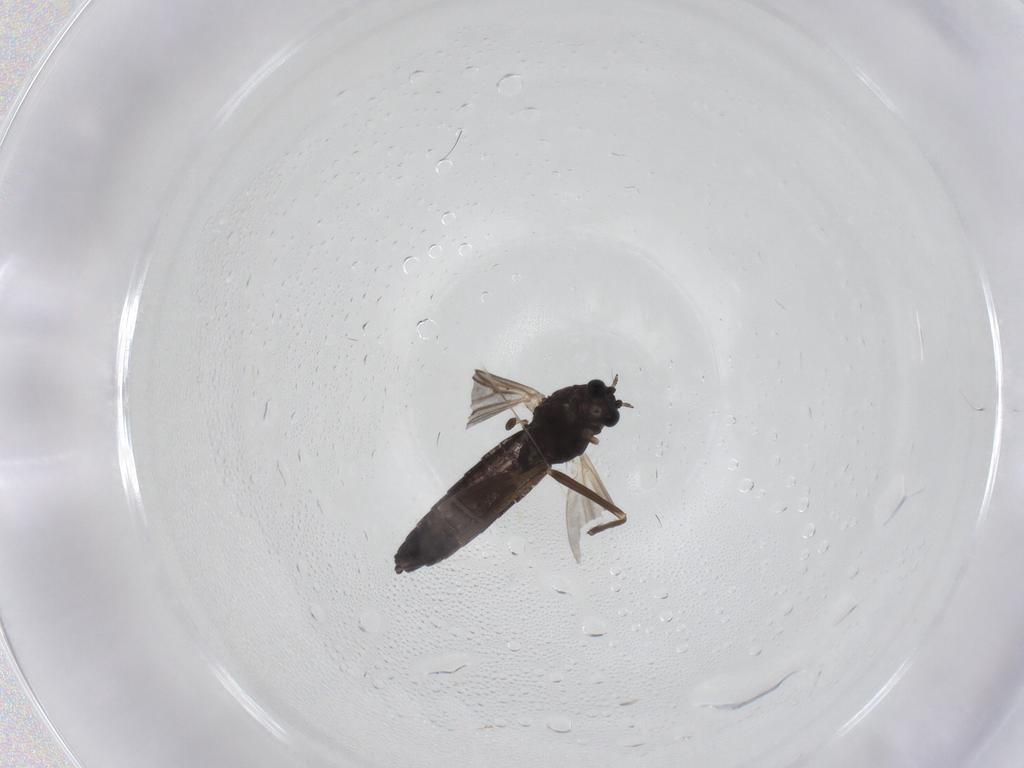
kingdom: Animalia
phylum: Arthropoda
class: Insecta
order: Diptera
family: Chironomidae
